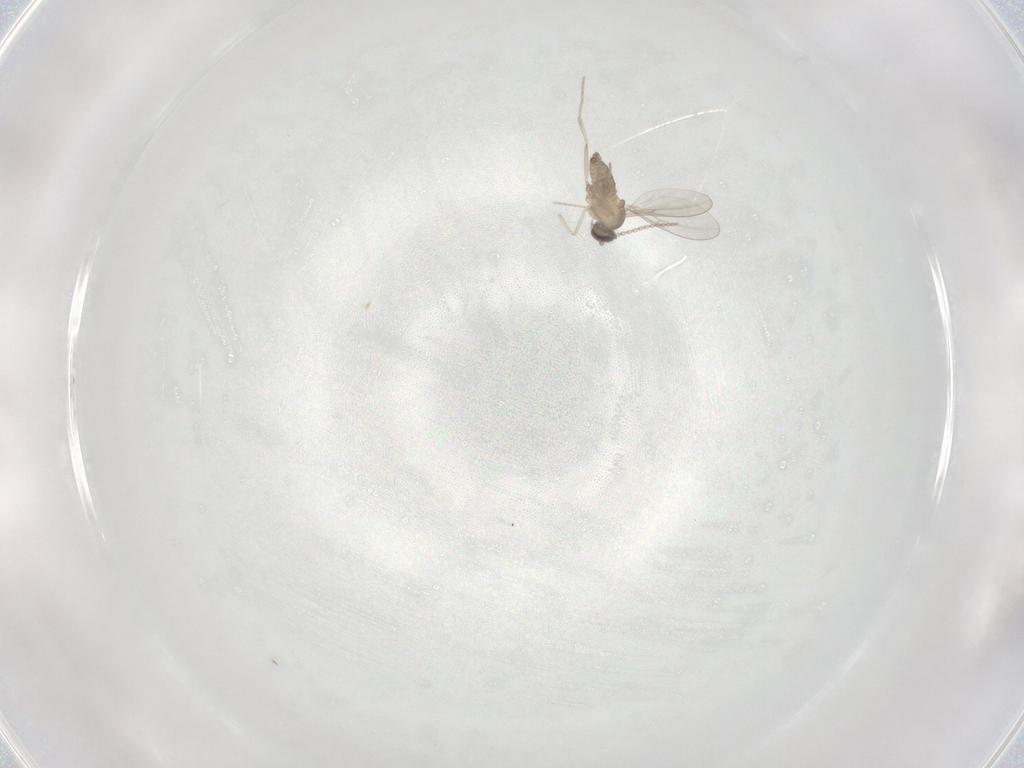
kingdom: Animalia
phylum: Arthropoda
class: Insecta
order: Diptera
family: Cecidomyiidae
